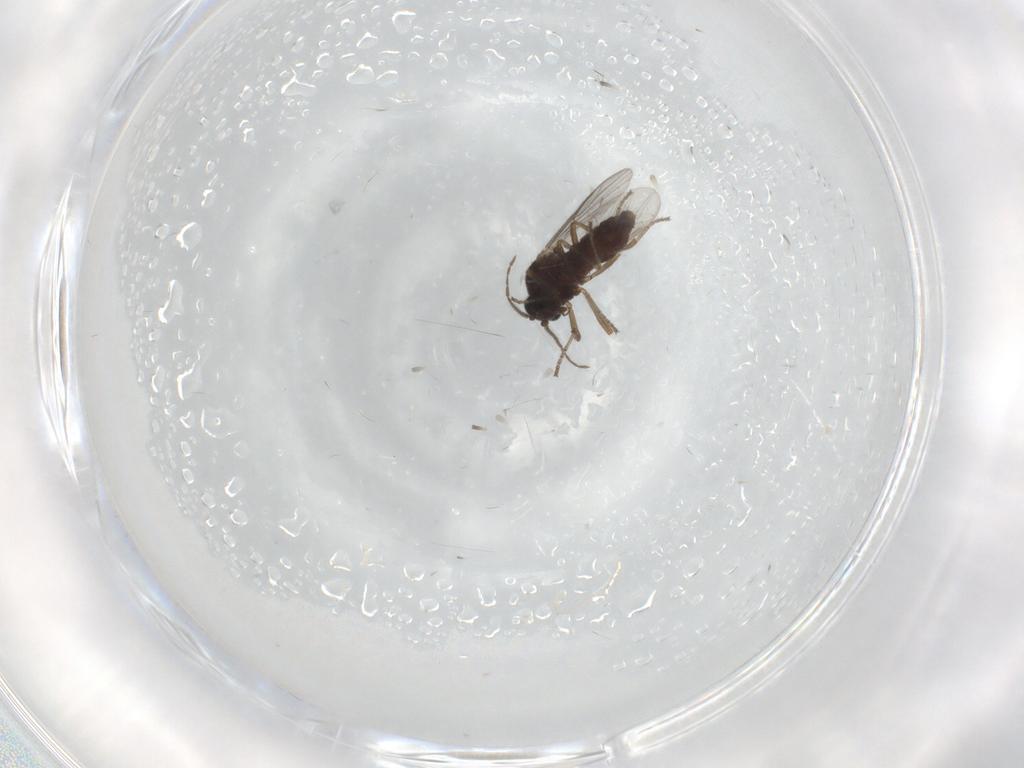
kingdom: Animalia
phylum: Arthropoda
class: Insecta
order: Diptera
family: Ceratopogonidae
